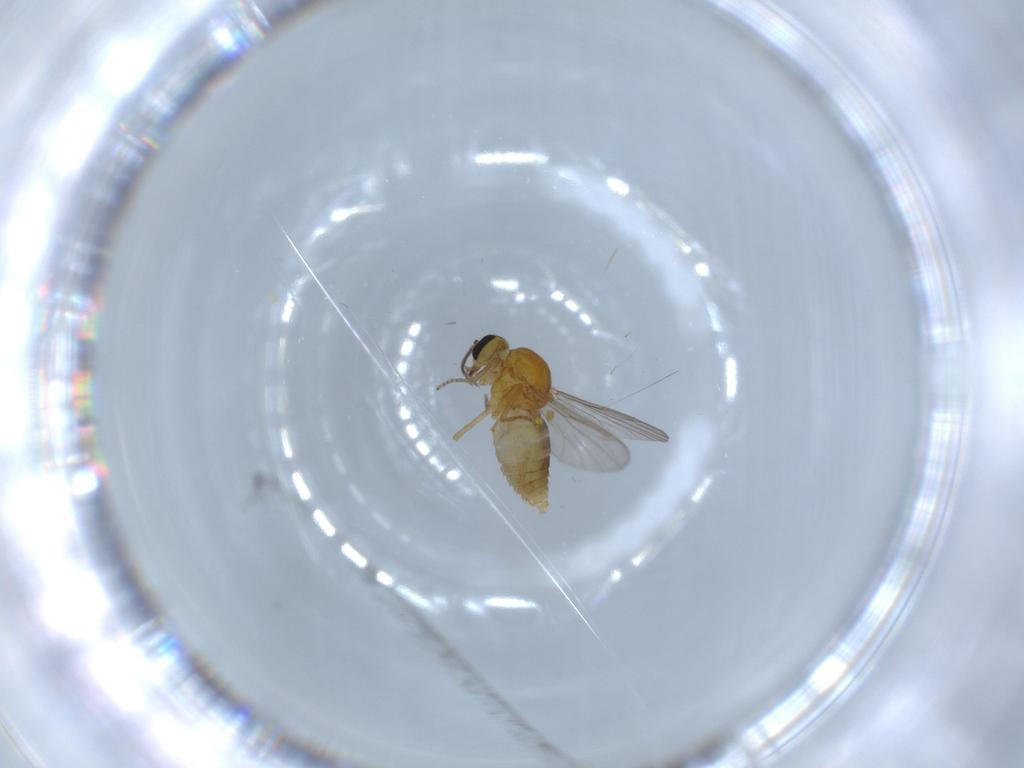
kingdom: Animalia
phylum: Arthropoda
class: Insecta
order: Diptera
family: Ceratopogonidae
